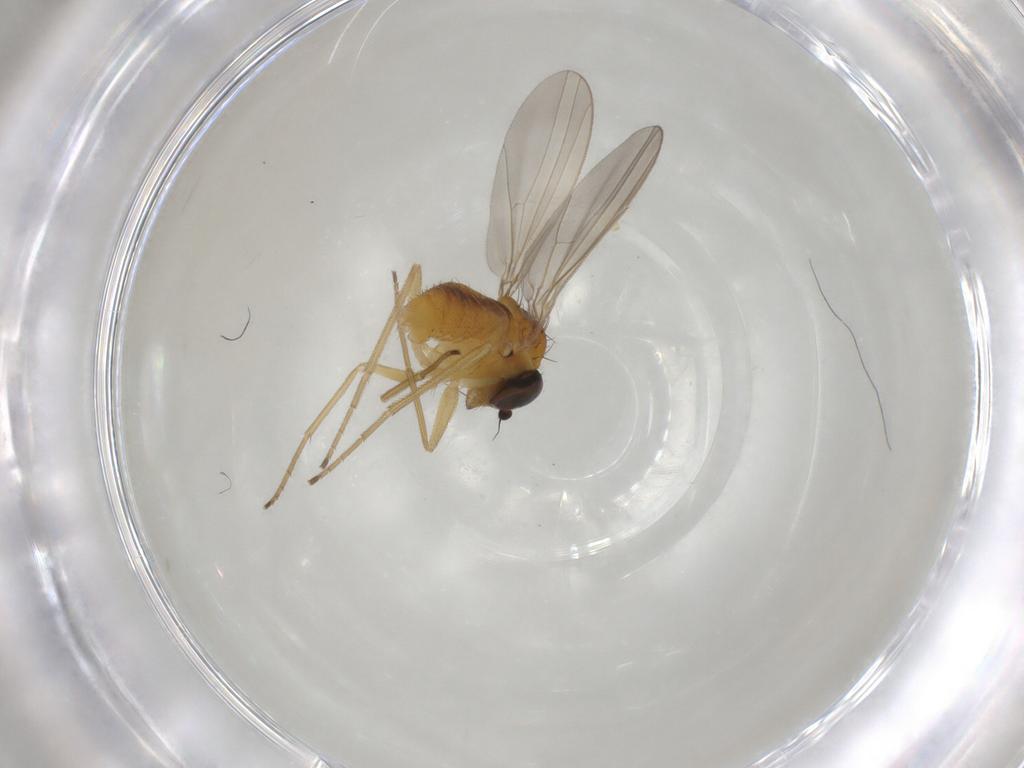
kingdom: Animalia
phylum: Arthropoda
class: Insecta
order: Diptera
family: Dolichopodidae
